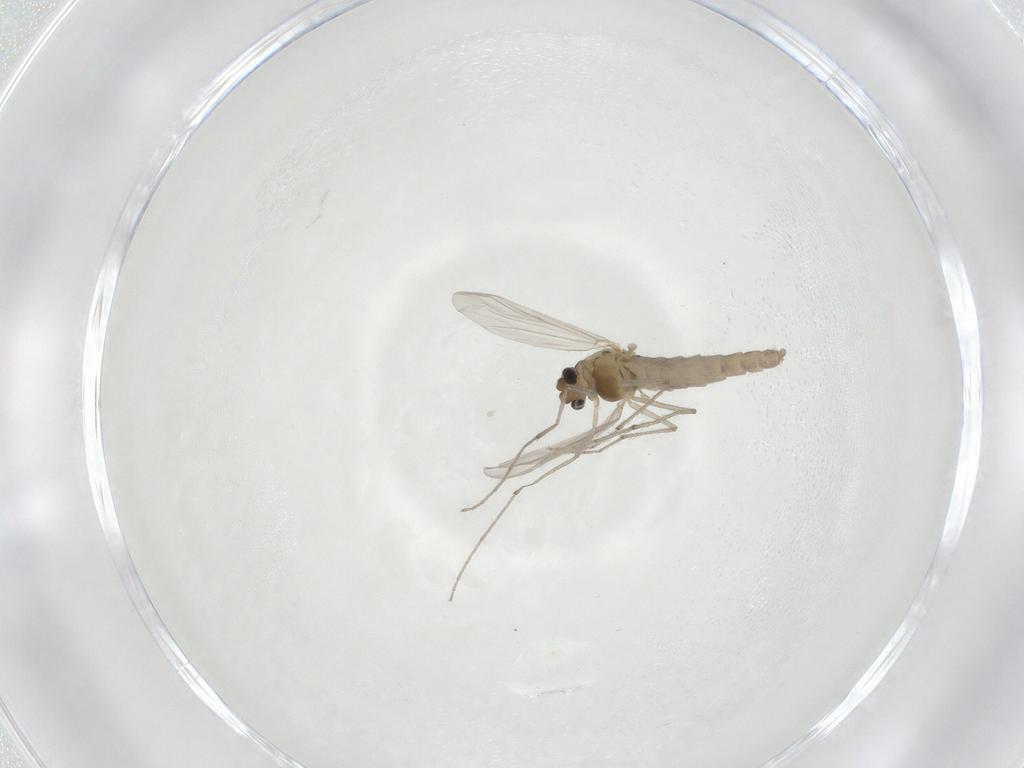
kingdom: Animalia
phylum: Arthropoda
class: Insecta
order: Diptera
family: Chironomidae
